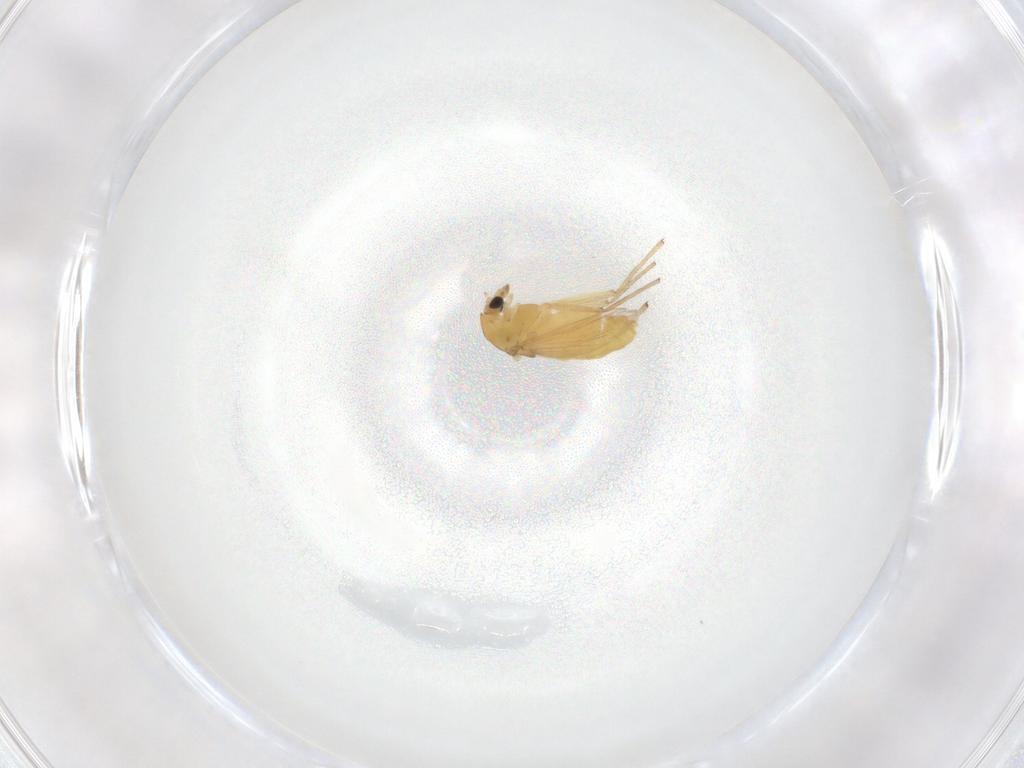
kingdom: Animalia
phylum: Arthropoda
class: Insecta
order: Diptera
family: Chironomidae
